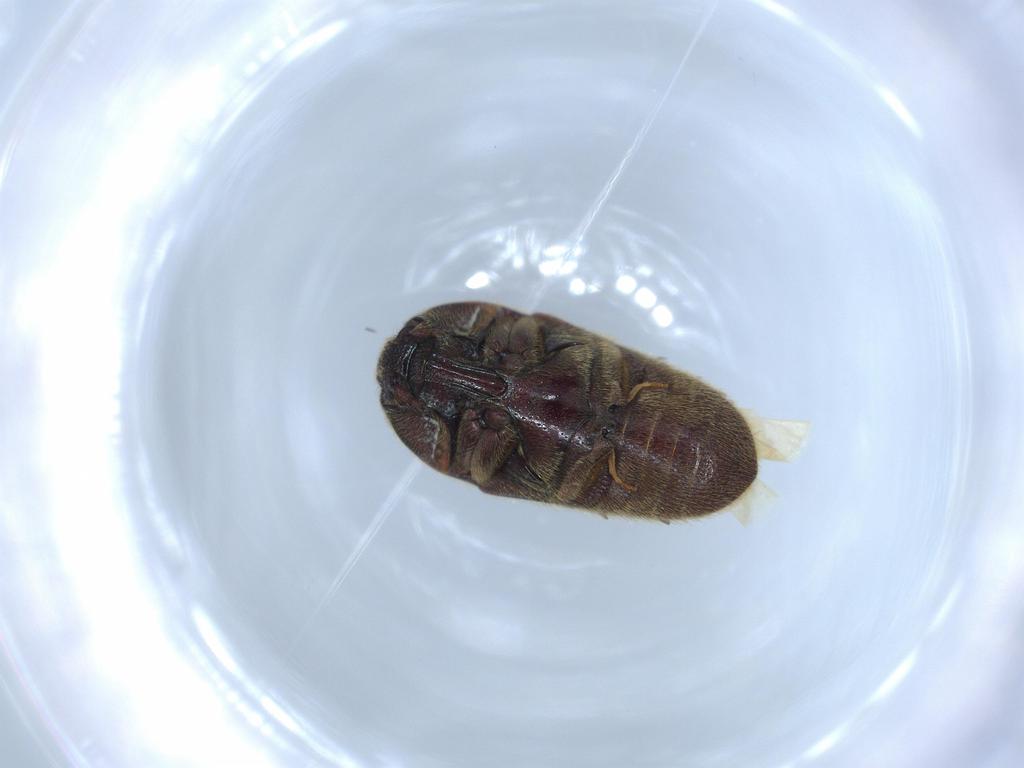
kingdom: Animalia
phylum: Arthropoda
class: Insecta
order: Coleoptera
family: Throscidae
